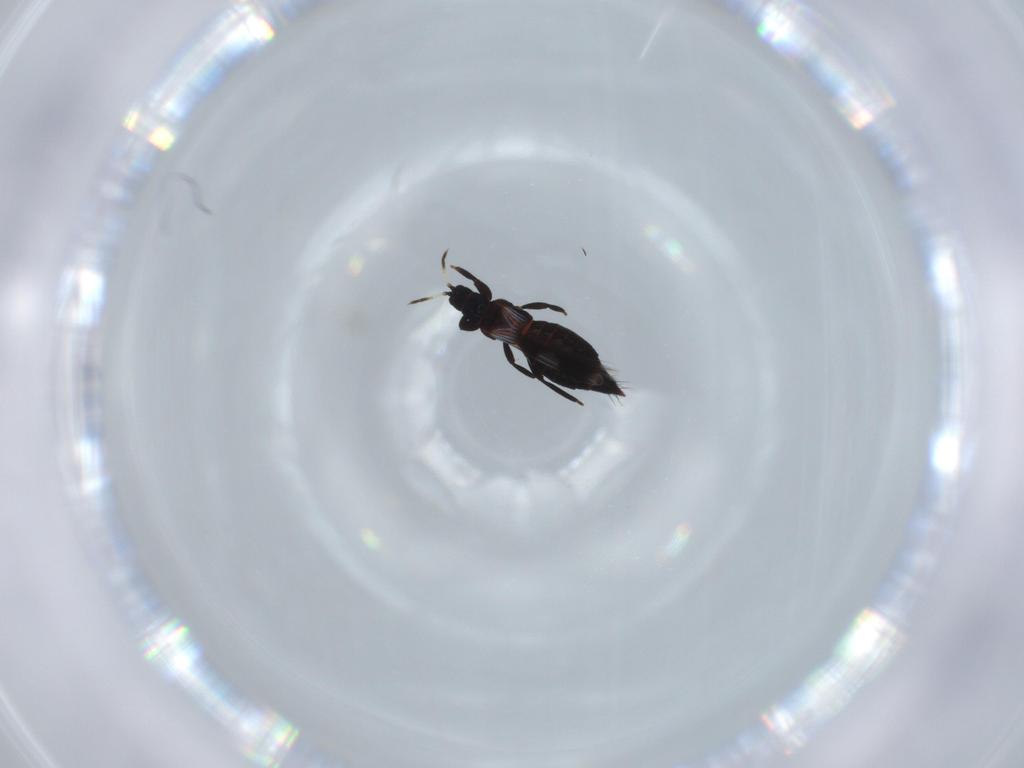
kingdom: Animalia
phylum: Arthropoda
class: Insecta
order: Thysanoptera
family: Aeolothripidae
